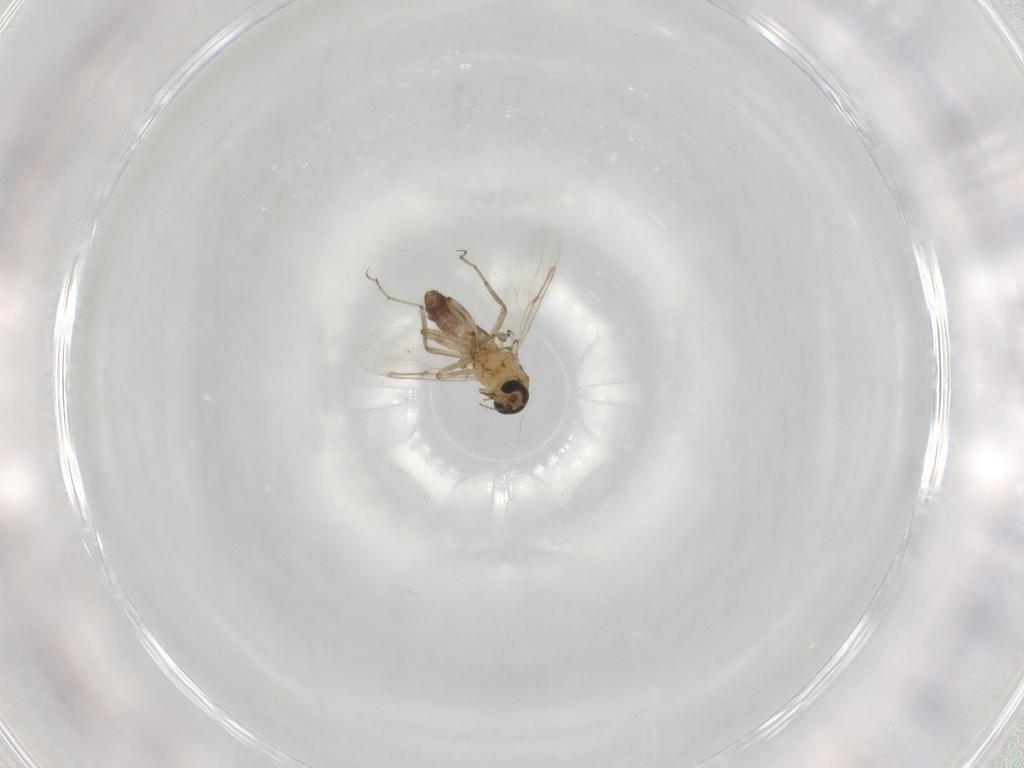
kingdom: Animalia
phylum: Arthropoda
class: Insecta
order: Diptera
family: Ceratopogonidae
